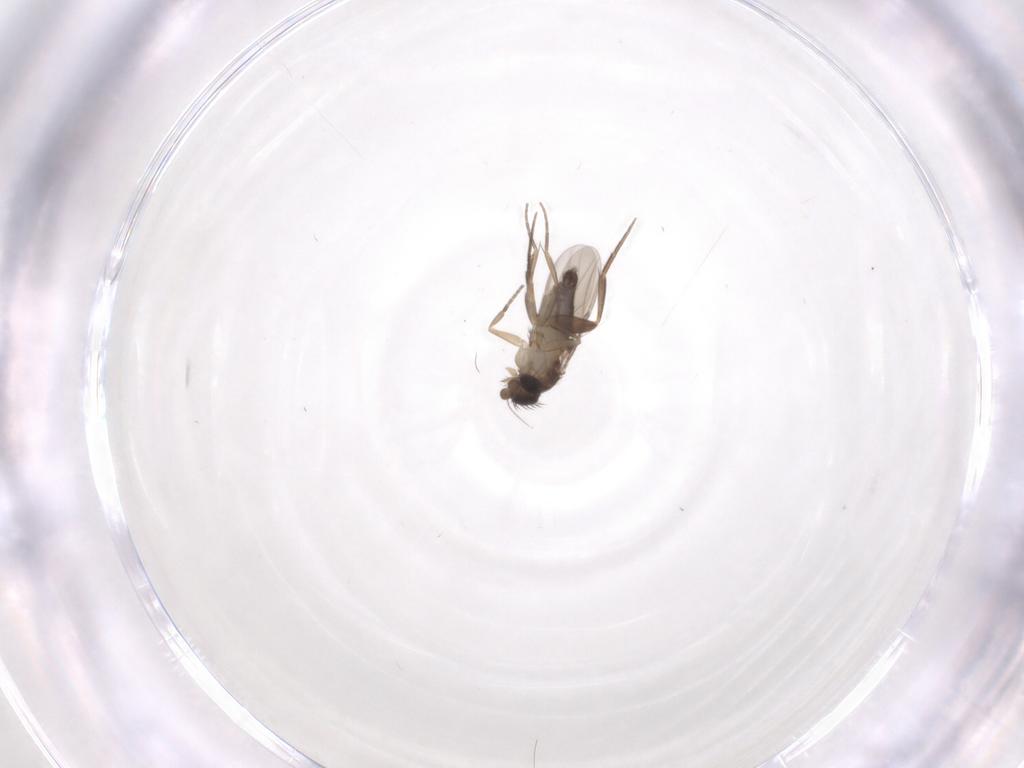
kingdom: Animalia
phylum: Arthropoda
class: Insecta
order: Diptera
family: Phoridae
